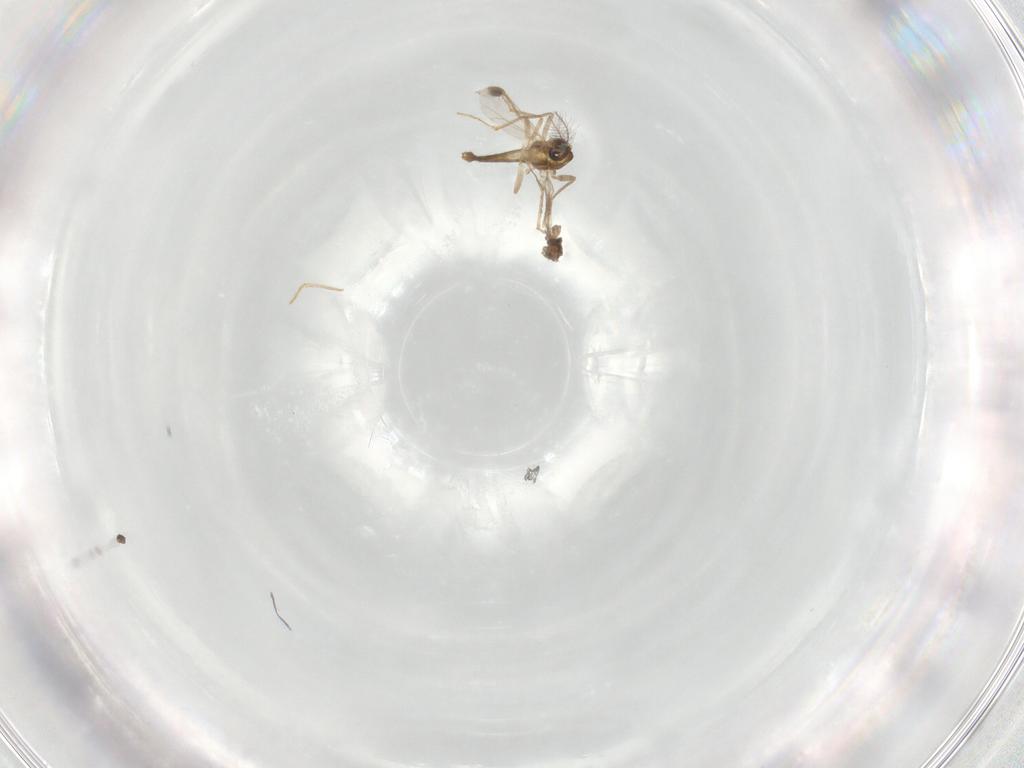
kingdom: Animalia
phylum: Arthropoda
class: Insecta
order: Diptera
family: Chironomidae
